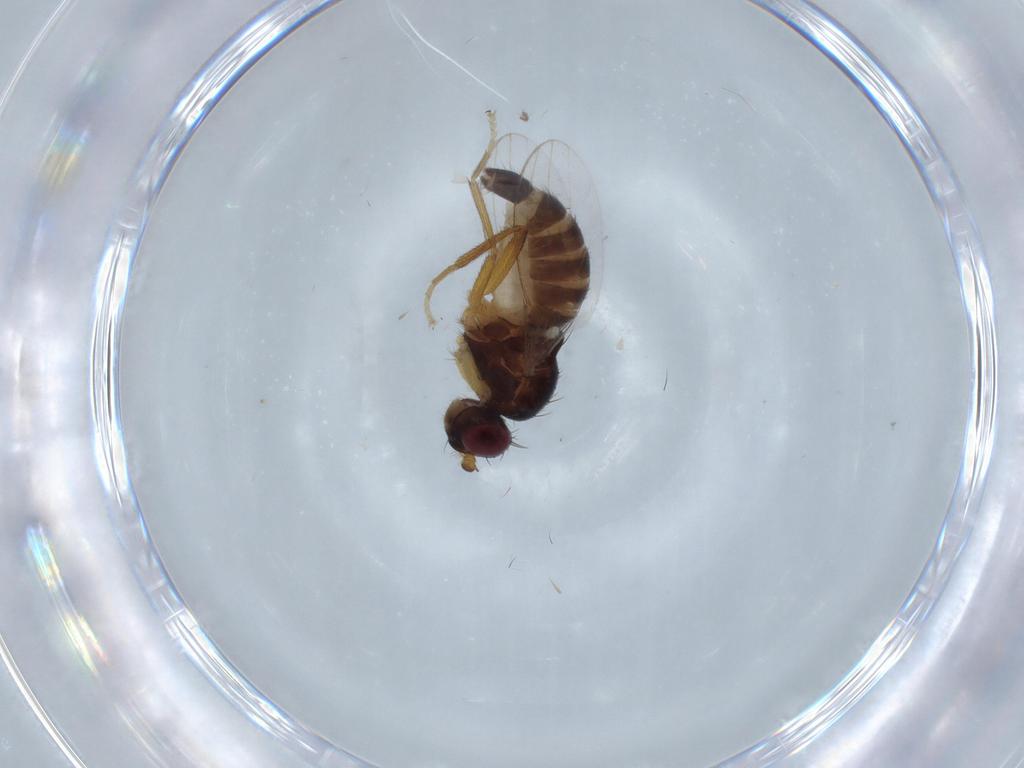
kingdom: Animalia
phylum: Arthropoda
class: Insecta
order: Diptera
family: Cypselosomatidae
